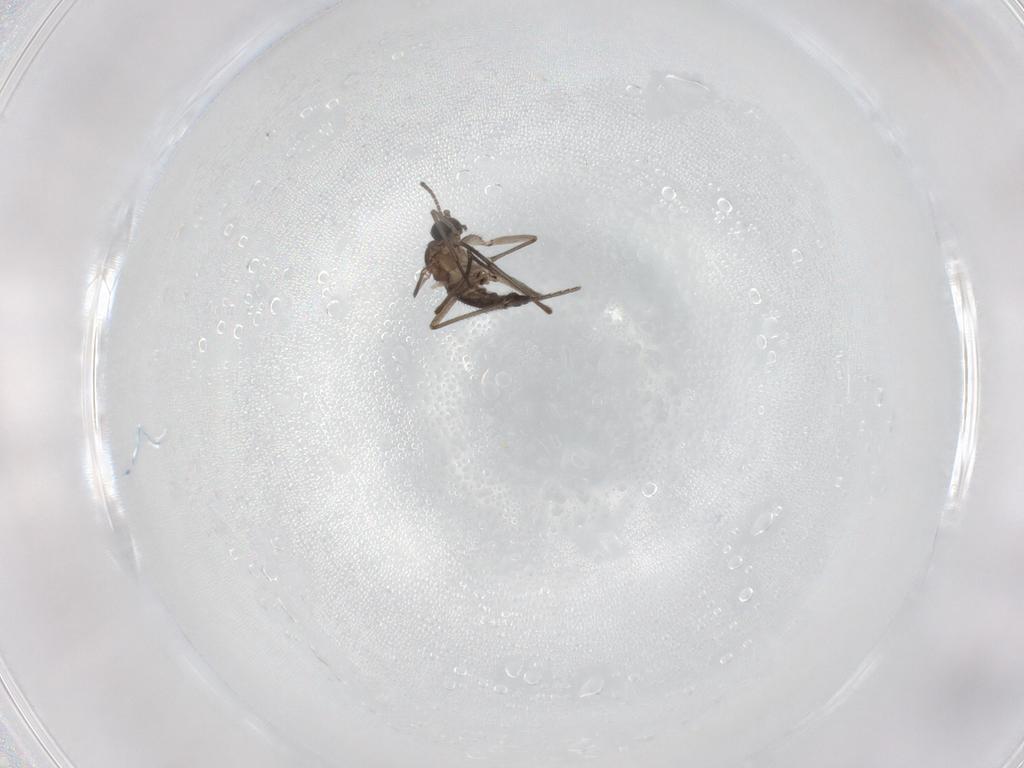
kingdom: Animalia
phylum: Arthropoda
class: Insecta
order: Diptera
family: Sciaridae
